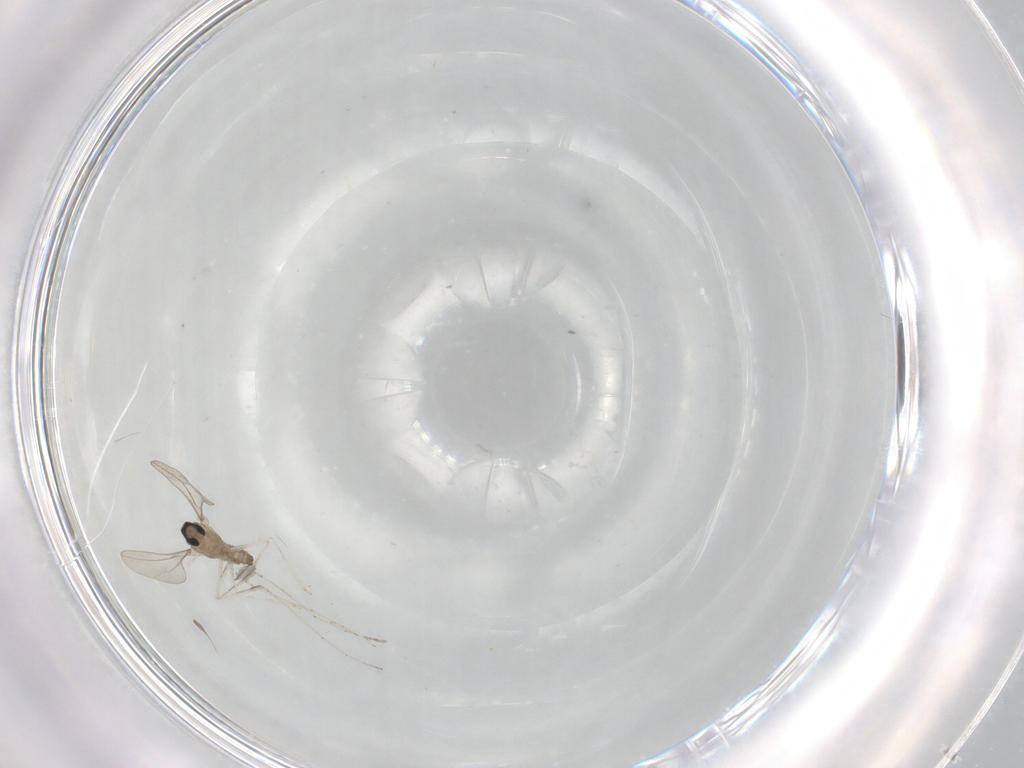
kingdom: Animalia
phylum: Arthropoda
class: Insecta
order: Diptera
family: Cecidomyiidae
